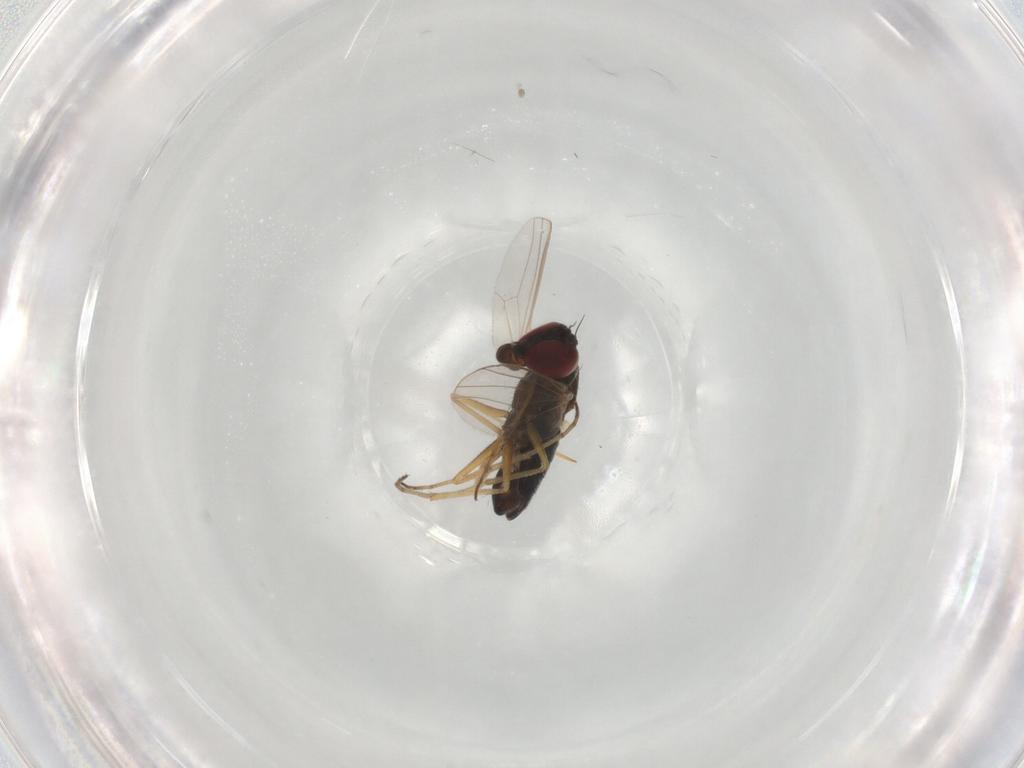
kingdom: Animalia
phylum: Arthropoda
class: Insecta
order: Diptera
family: Dolichopodidae
